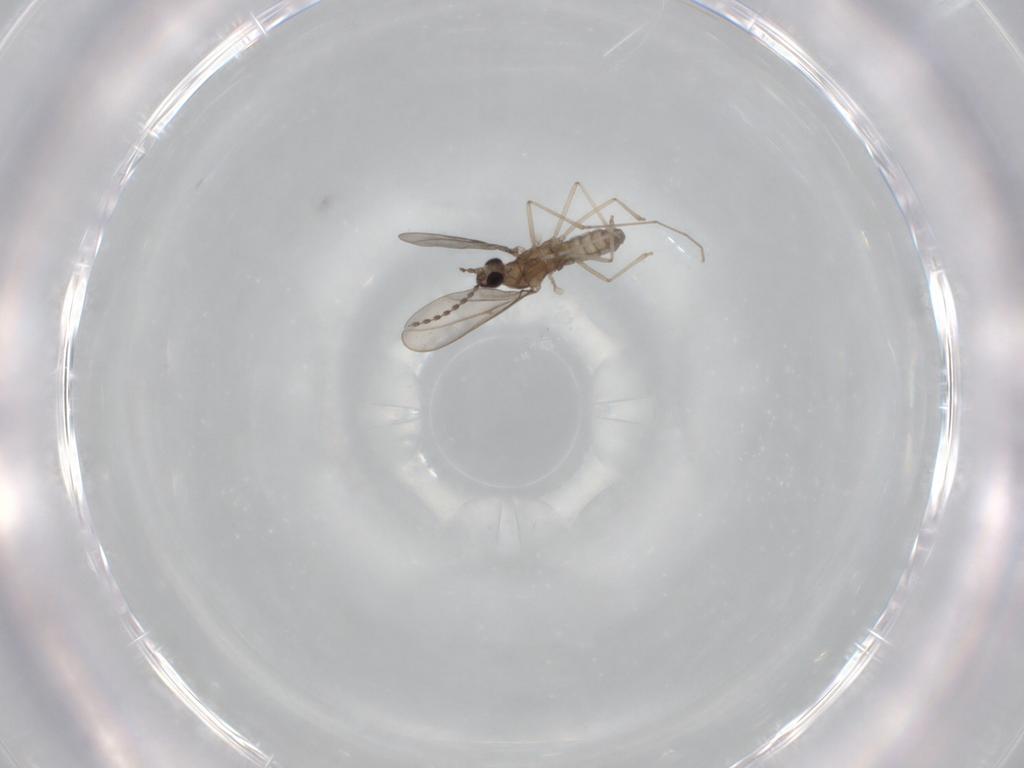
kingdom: Animalia
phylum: Arthropoda
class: Insecta
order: Diptera
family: Cecidomyiidae
